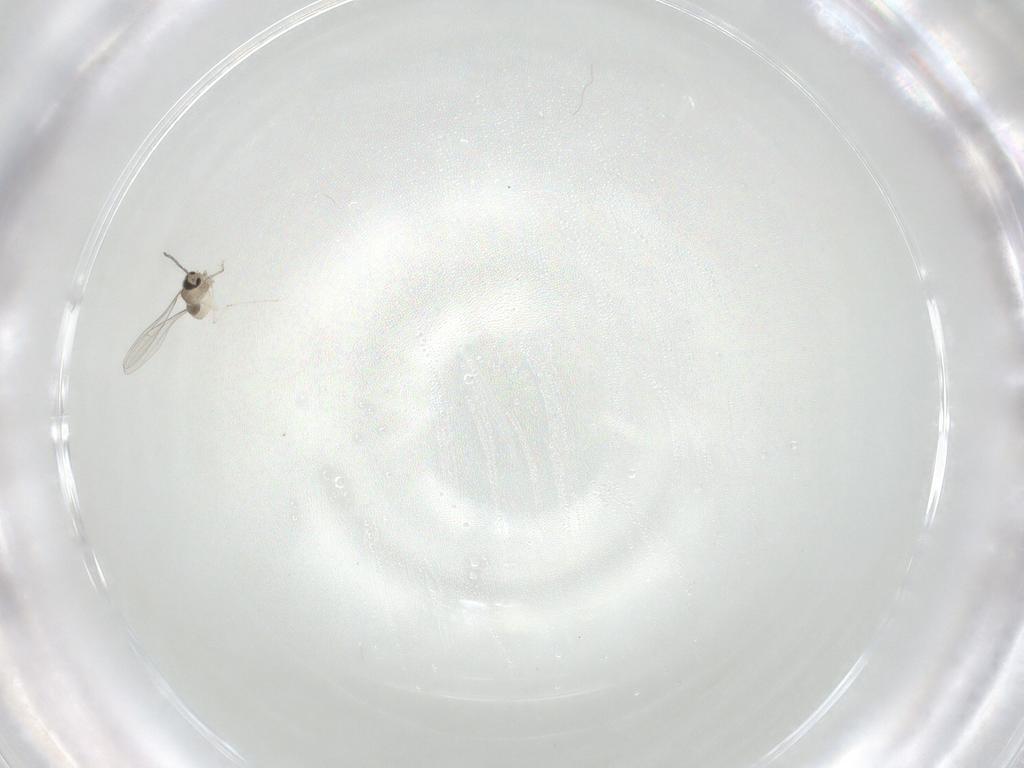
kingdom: Animalia
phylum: Arthropoda
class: Insecta
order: Diptera
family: Cecidomyiidae
